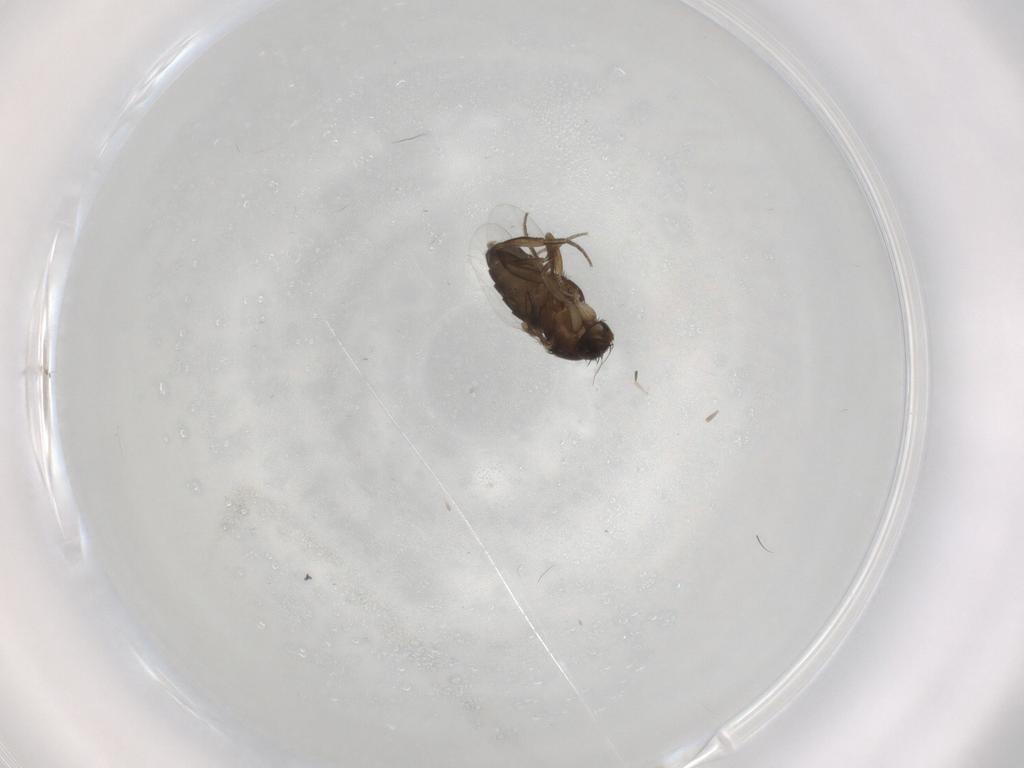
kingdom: Animalia
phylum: Arthropoda
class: Insecta
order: Diptera
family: Phoridae
